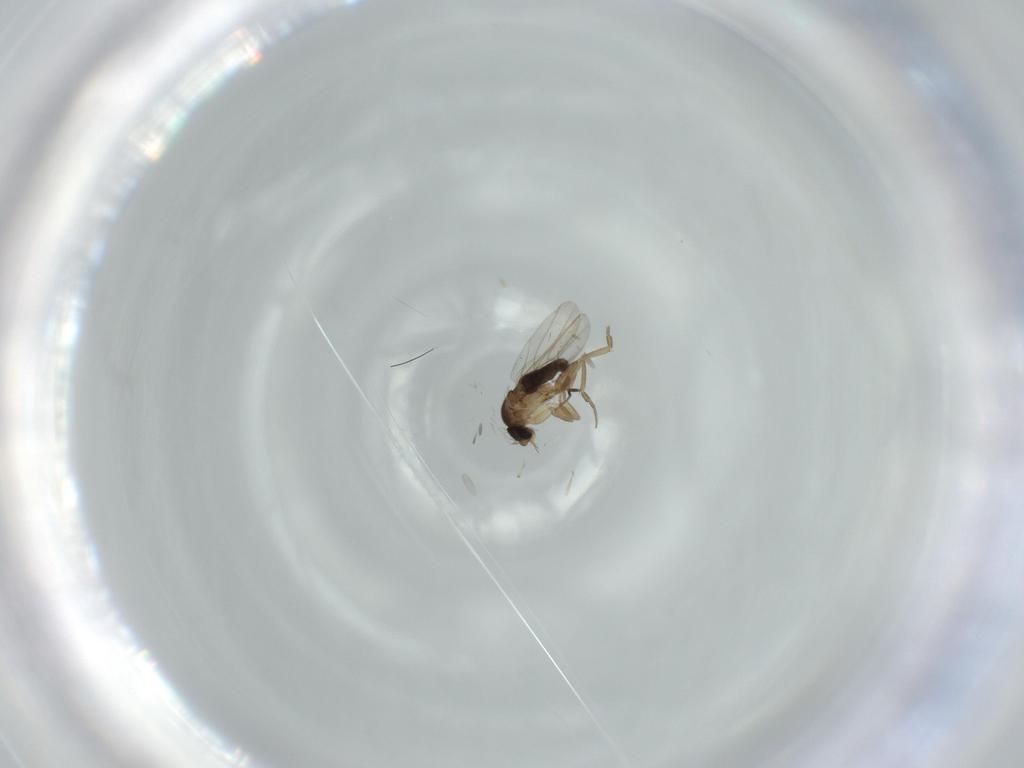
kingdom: Animalia
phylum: Arthropoda
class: Insecta
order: Diptera
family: Phoridae
